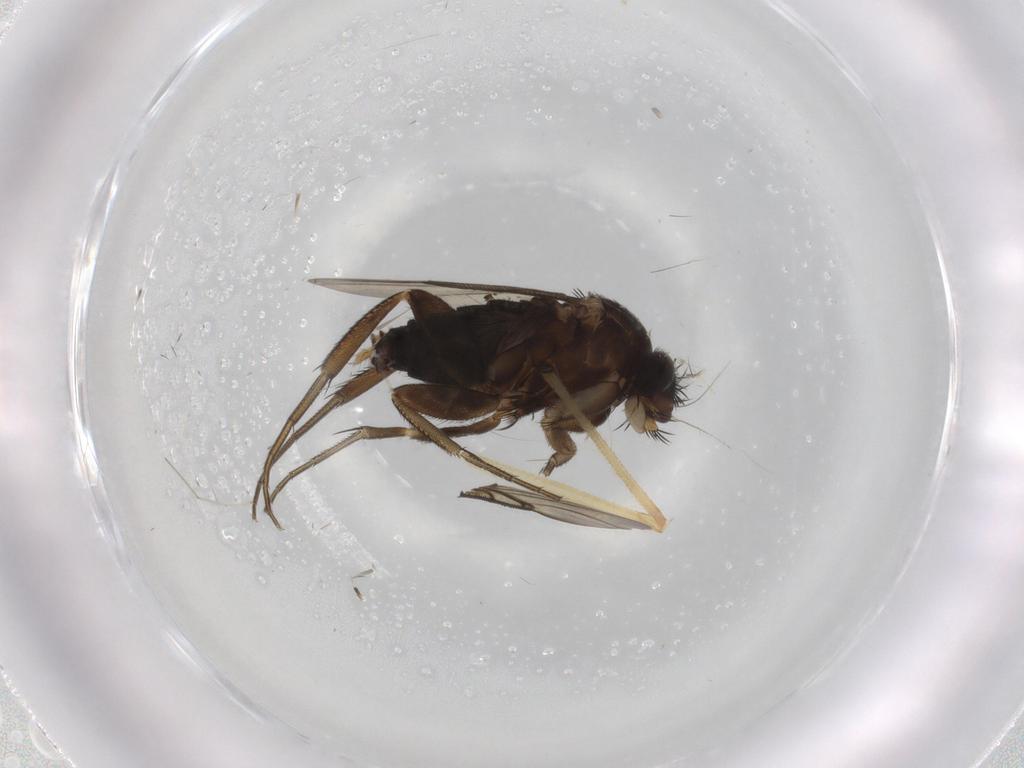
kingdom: Animalia
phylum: Arthropoda
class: Insecta
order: Diptera
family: Phoridae
